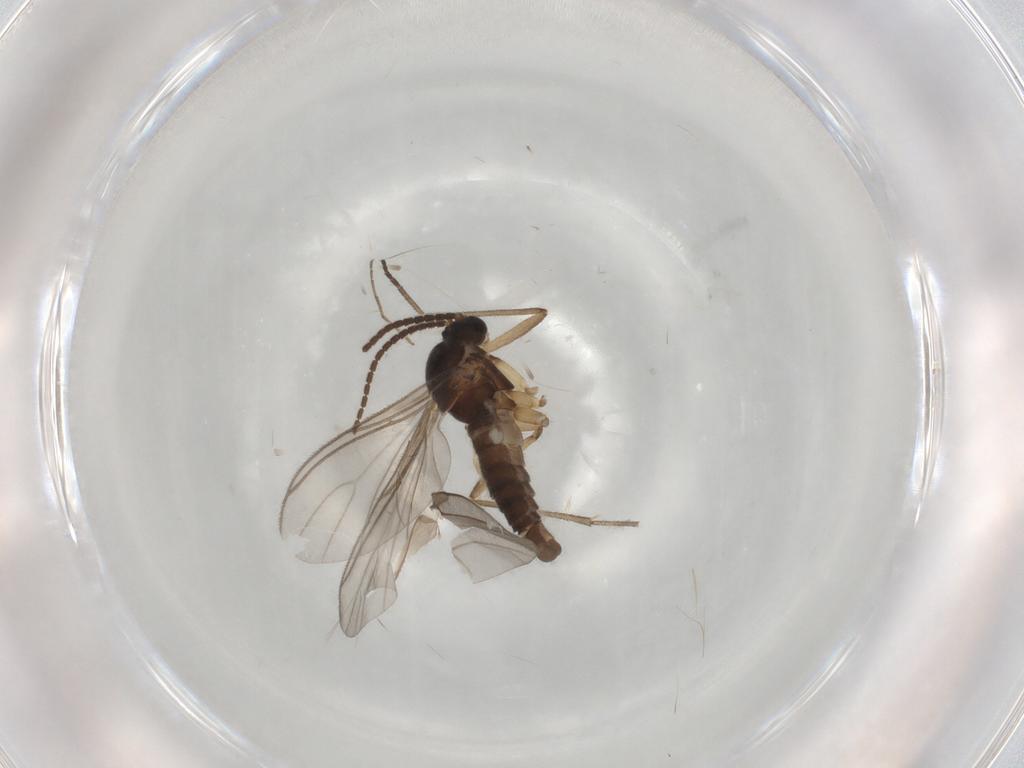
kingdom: Animalia
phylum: Arthropoda
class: Insecta
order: Diptera
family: Sciaridae
